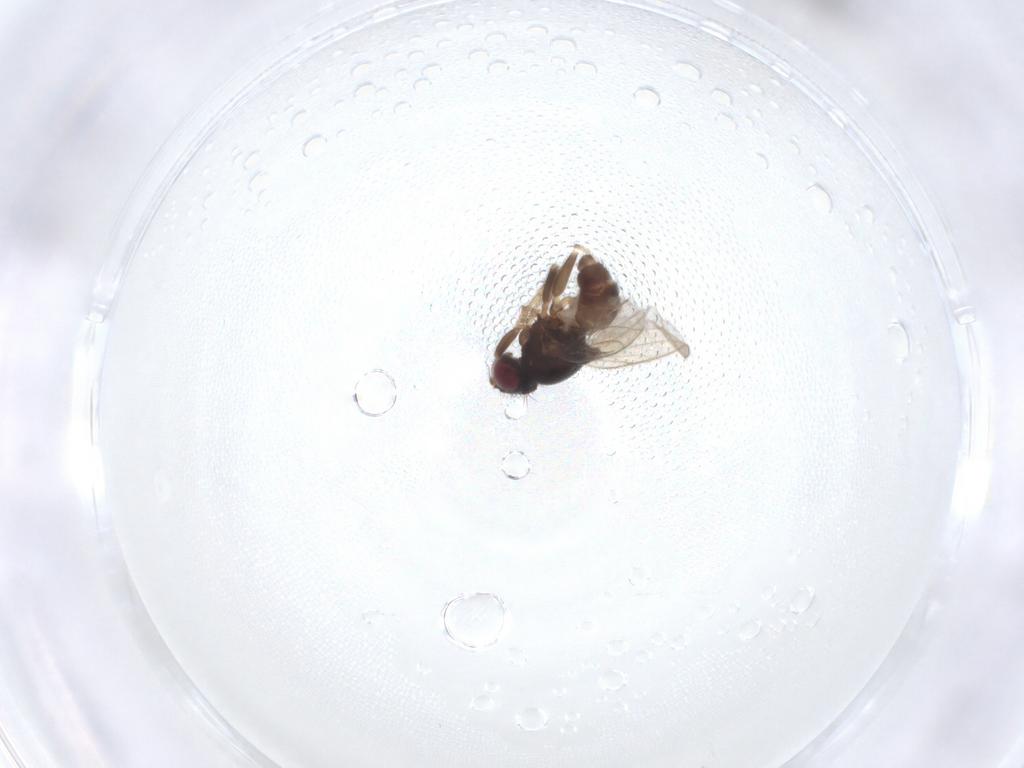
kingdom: Animalia
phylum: Arthropoda
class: Insecta
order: Diptera
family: Chloropidae
